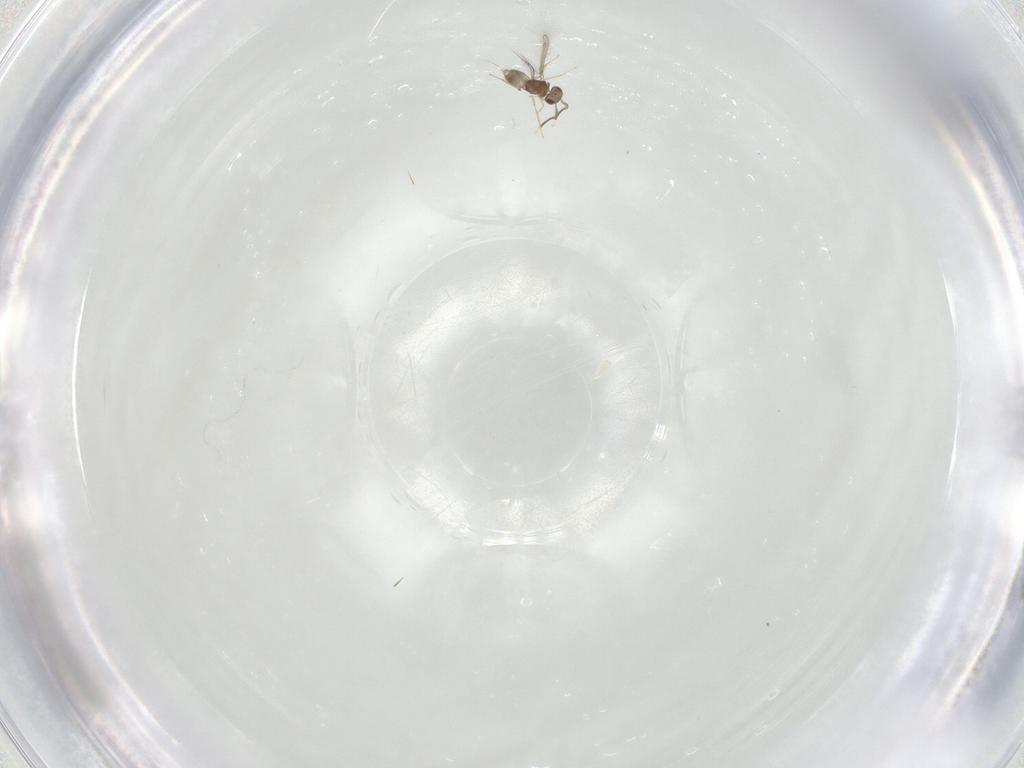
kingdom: Animalia
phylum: Arthropoda
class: Insecta
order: Hymenoptera
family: Mymaridae
